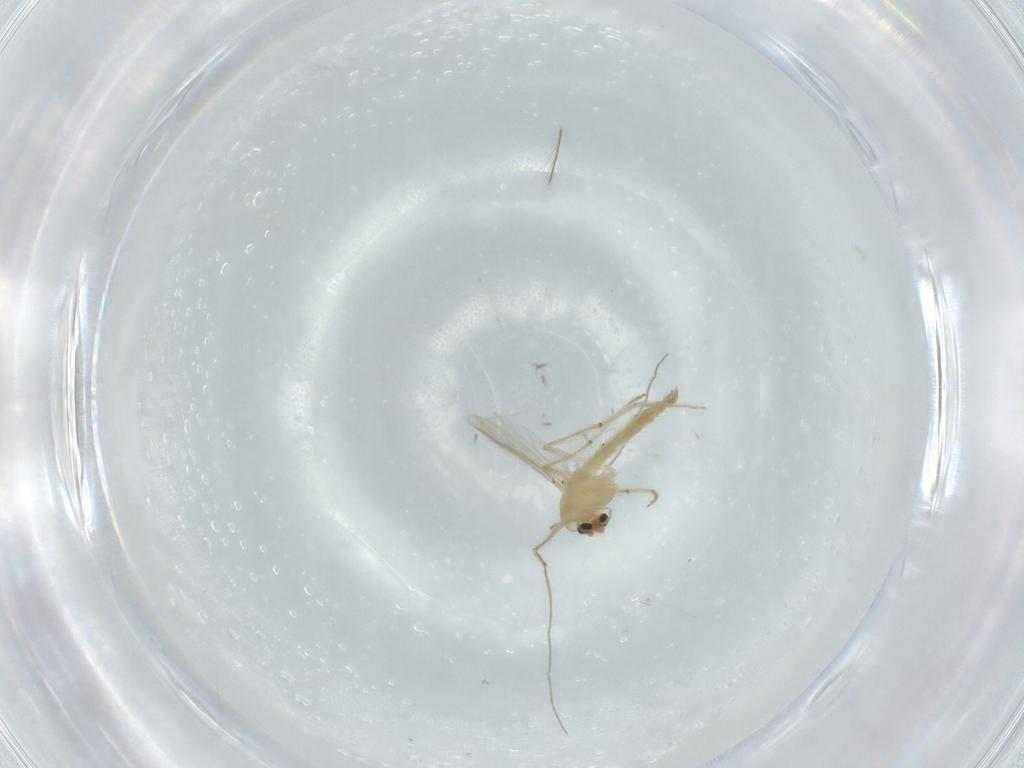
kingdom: Animalia
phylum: Arthropoda
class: Insecta
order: Diptera
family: Chironomidae
